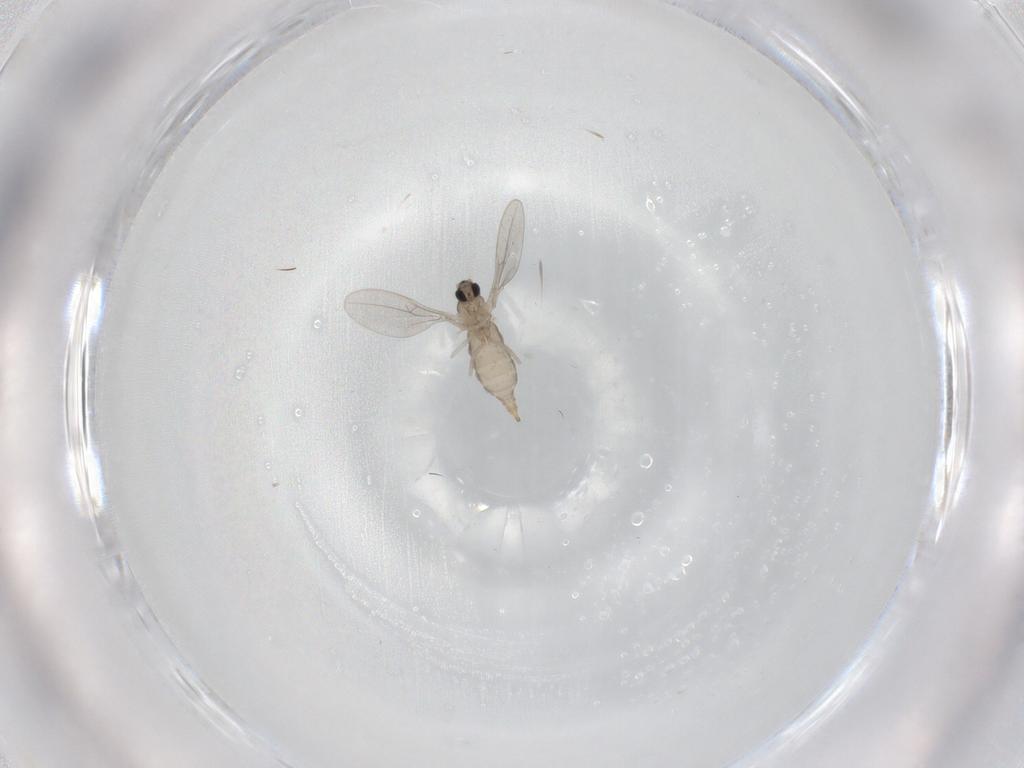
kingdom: Animalia
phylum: Arthropoda
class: Insecta
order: Diptera
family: Cecidomyiidae
